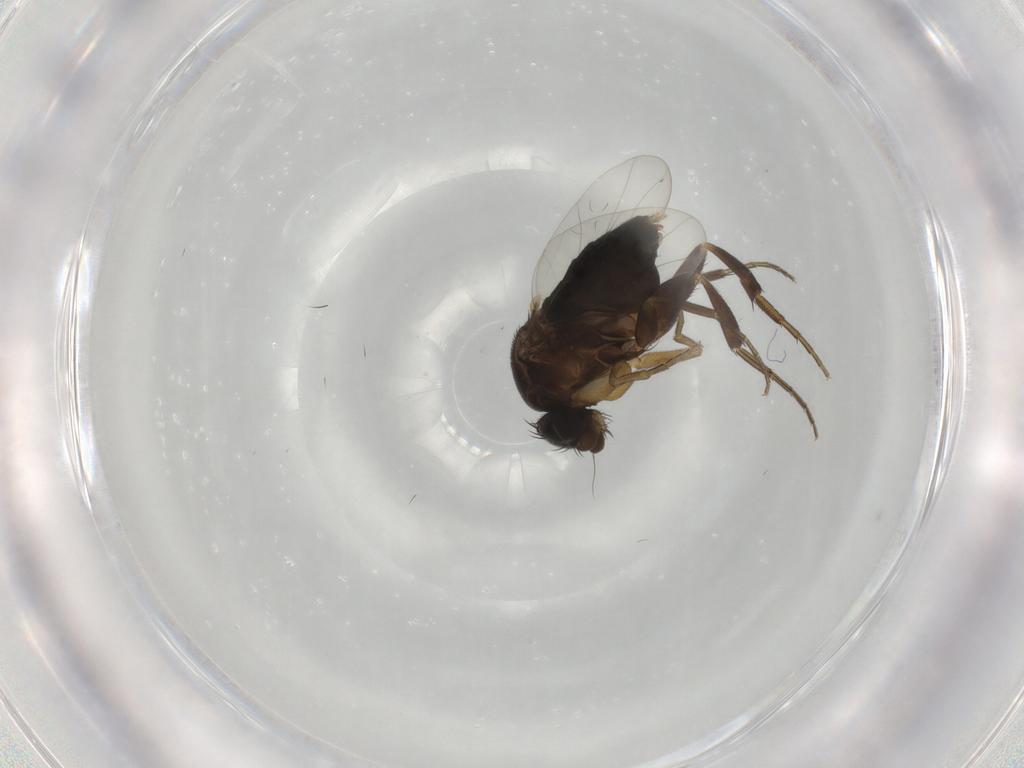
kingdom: Animalia
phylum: Arthropoda
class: Insecta
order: Diptera
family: Phoridae
